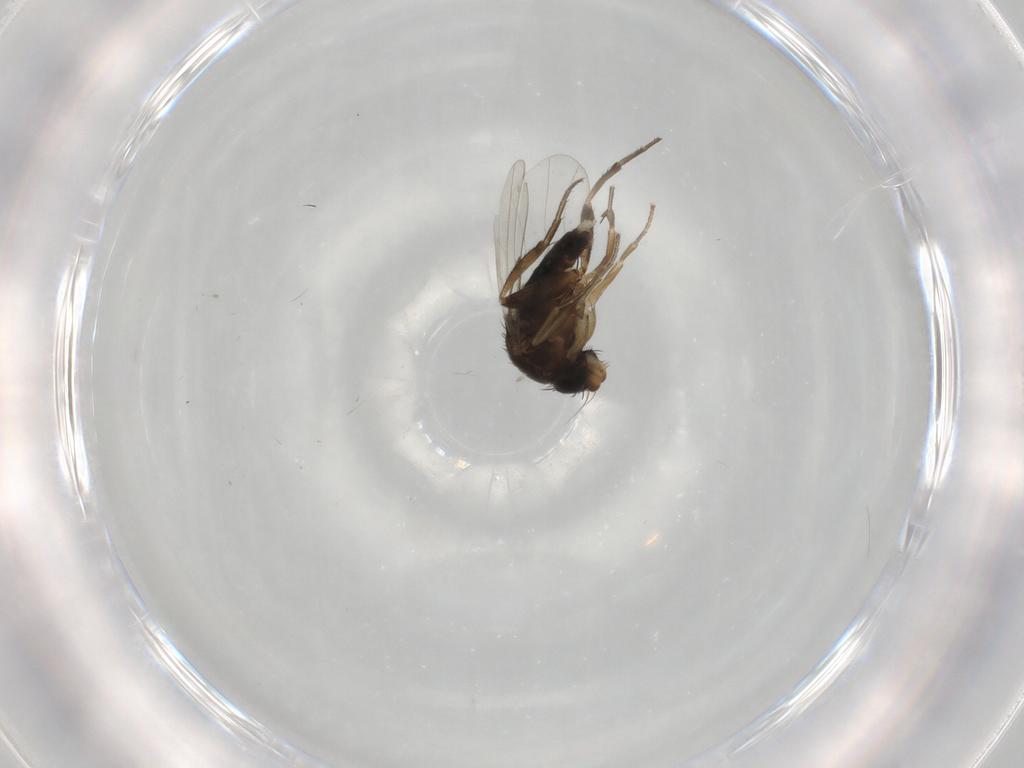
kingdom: Animalia
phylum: Arthropoda
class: Insecta
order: Diptera
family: Phoridae
